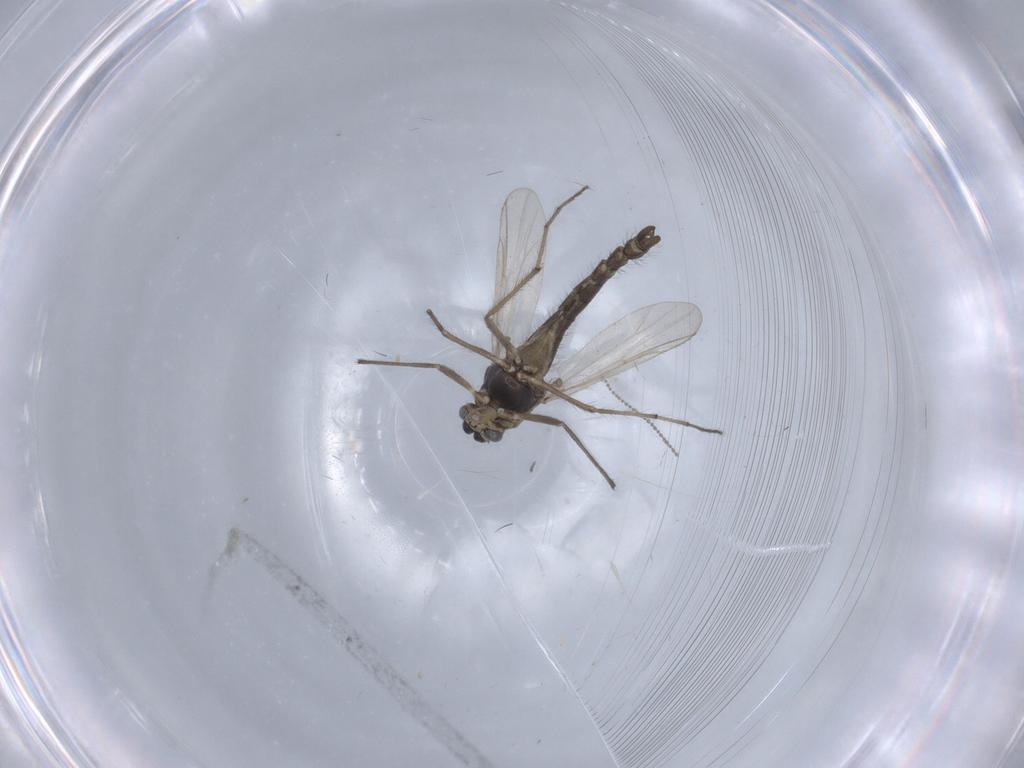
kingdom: Animalia
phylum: Arthropoda
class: Insecta
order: Diptera
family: Chironomidae
